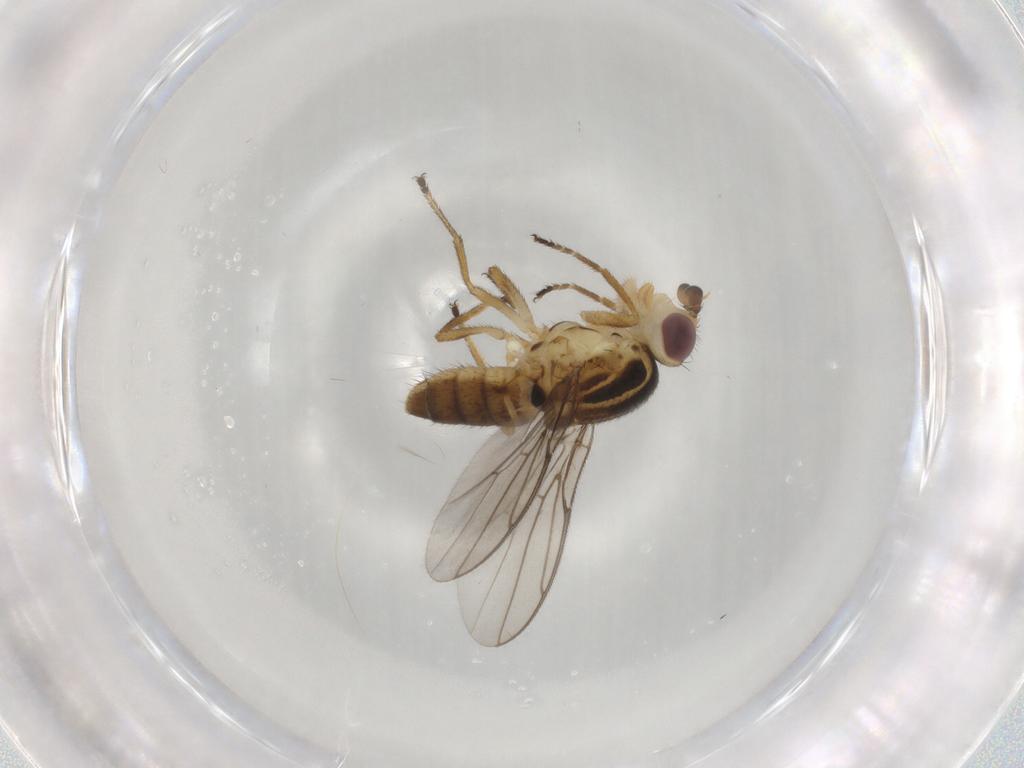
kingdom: Animalia
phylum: Arthropoda
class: Insecta
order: Diptera
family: Chloropidae
